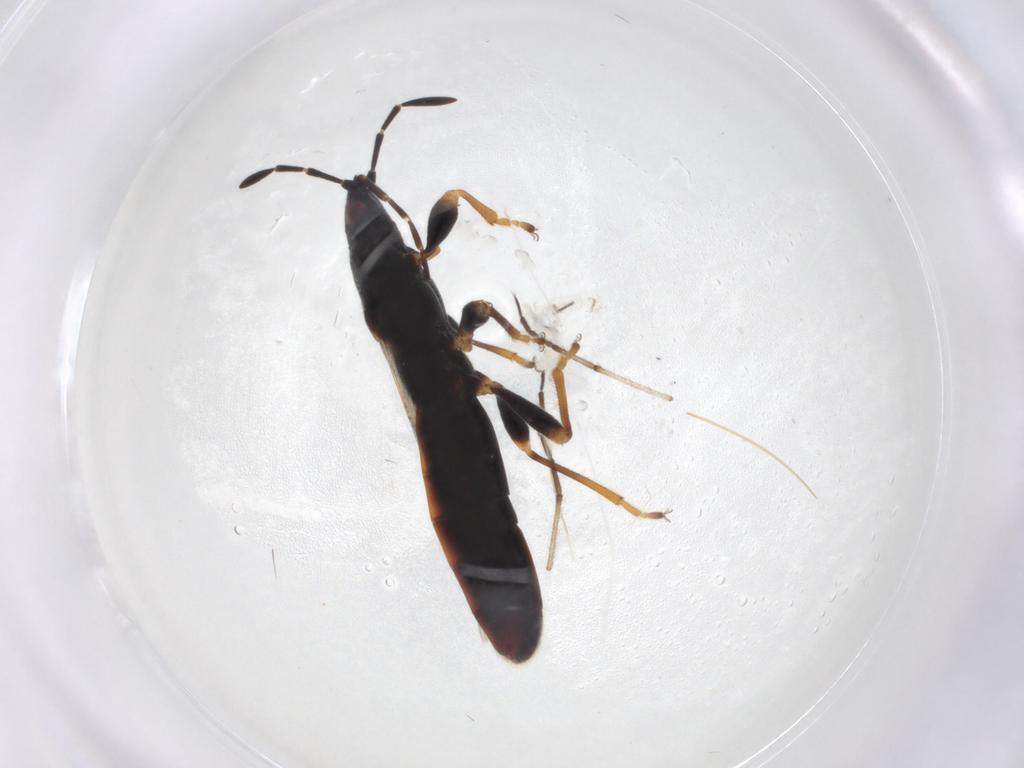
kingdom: Animalia
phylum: Arthropoda
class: Insecta
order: Hemiptera
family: Blissidae
